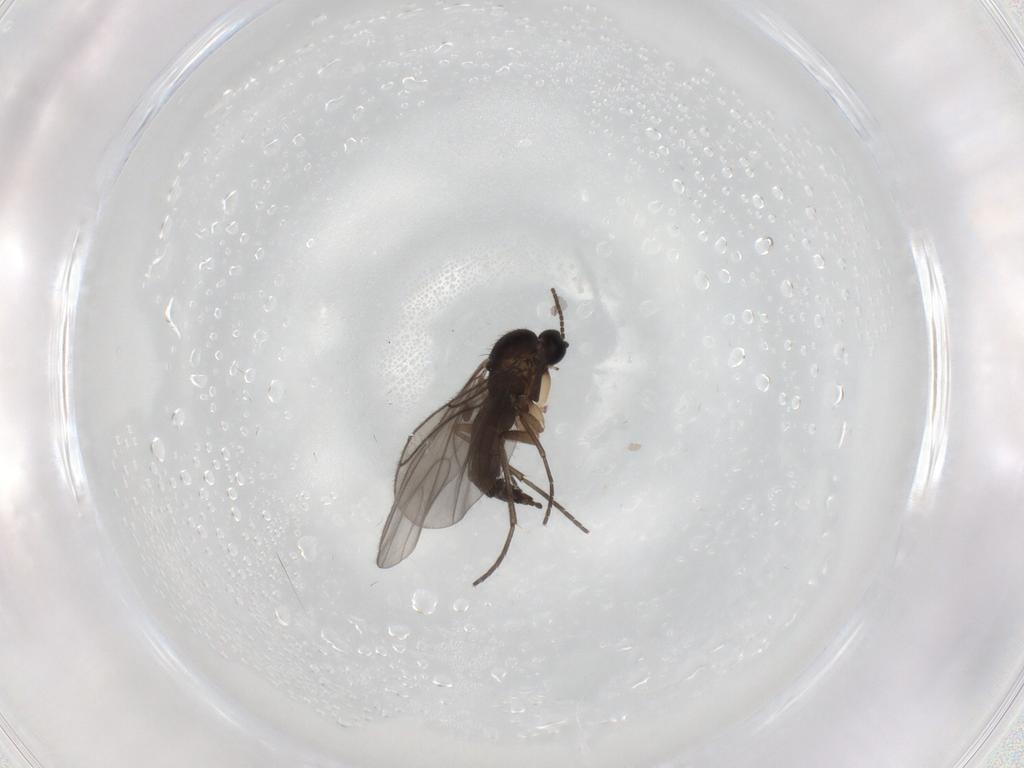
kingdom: Animalia
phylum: Arthropoda
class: Insecta
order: Diptera
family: Sciaridae
